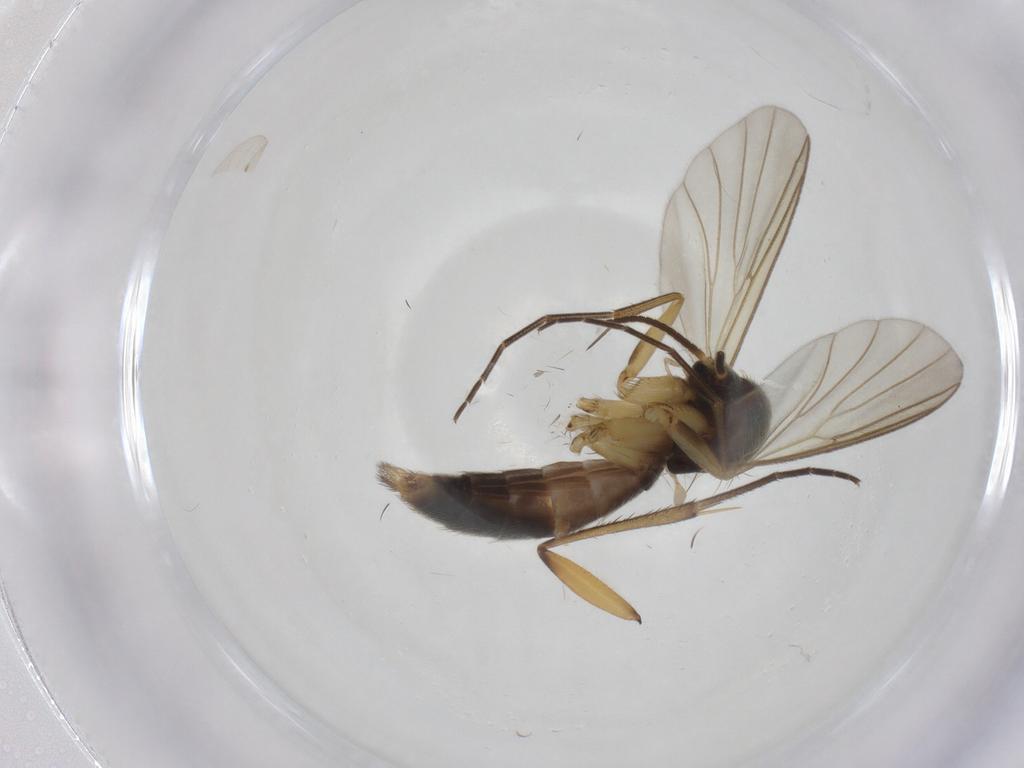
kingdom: Animalia
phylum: Arthropoda
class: Insecta
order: Diptera
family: Mycetophilidae
